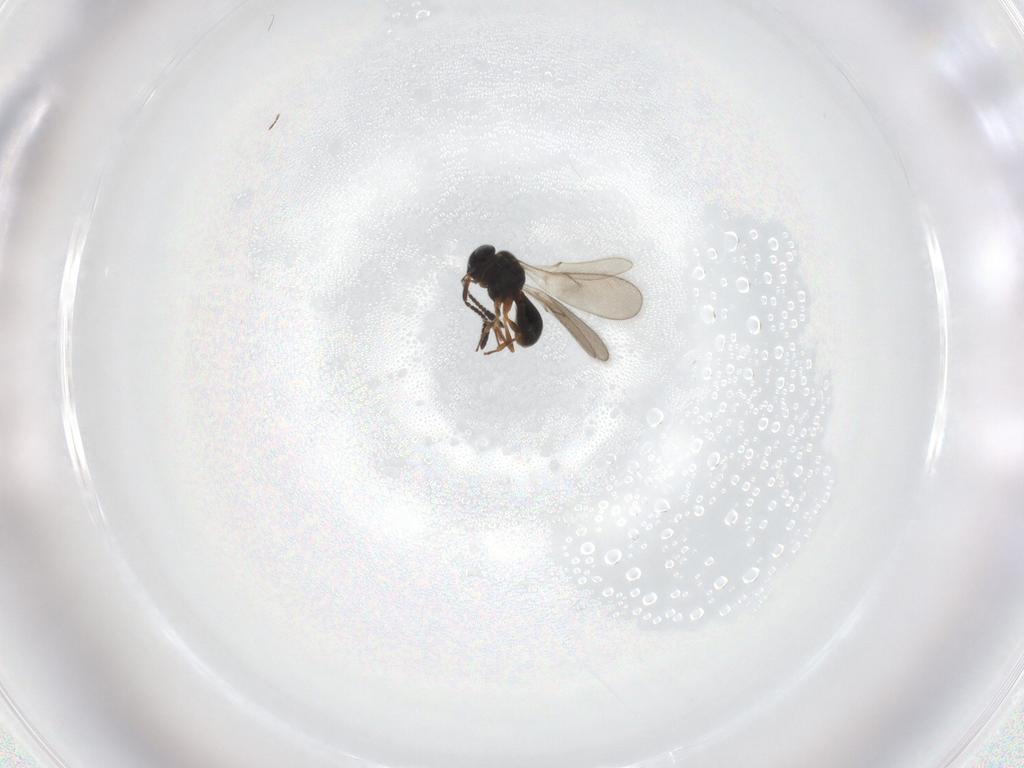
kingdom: Animalia
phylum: Arthropoda
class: Insecta
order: Hymenoptera
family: Scelionidae
